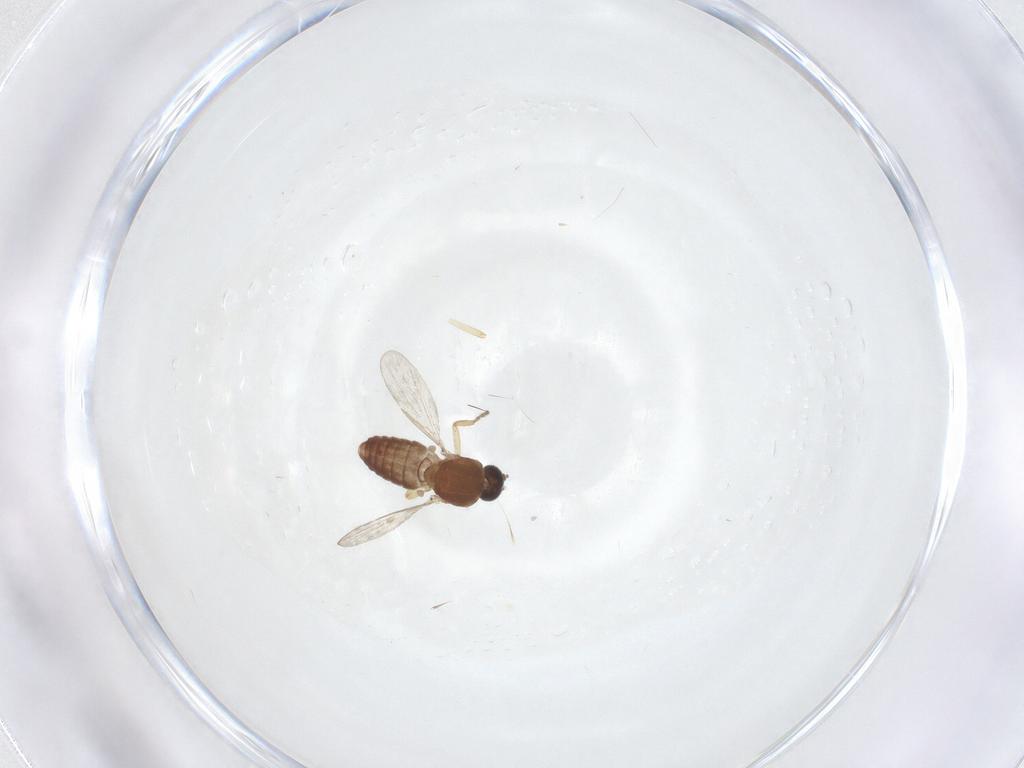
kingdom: Animalia
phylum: Arthropoda
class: Insecta
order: Diptera
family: Ceratopogonidae
